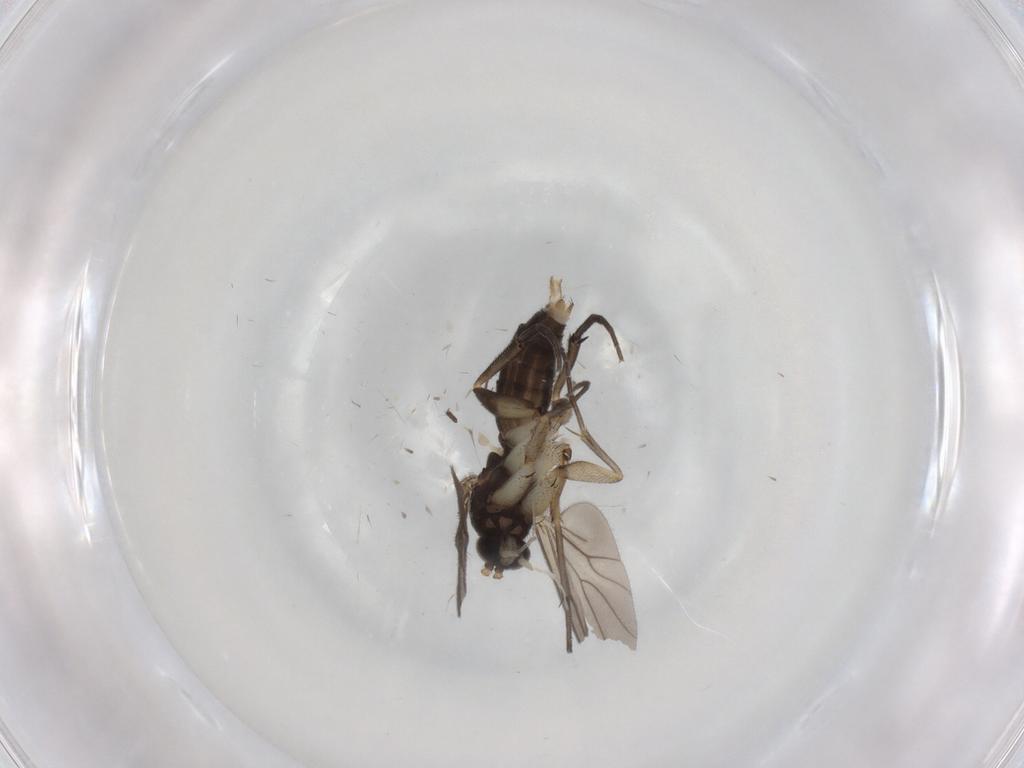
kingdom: Animalia
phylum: Arthropoda
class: Insecta
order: Diptera
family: Mycetophilidae
